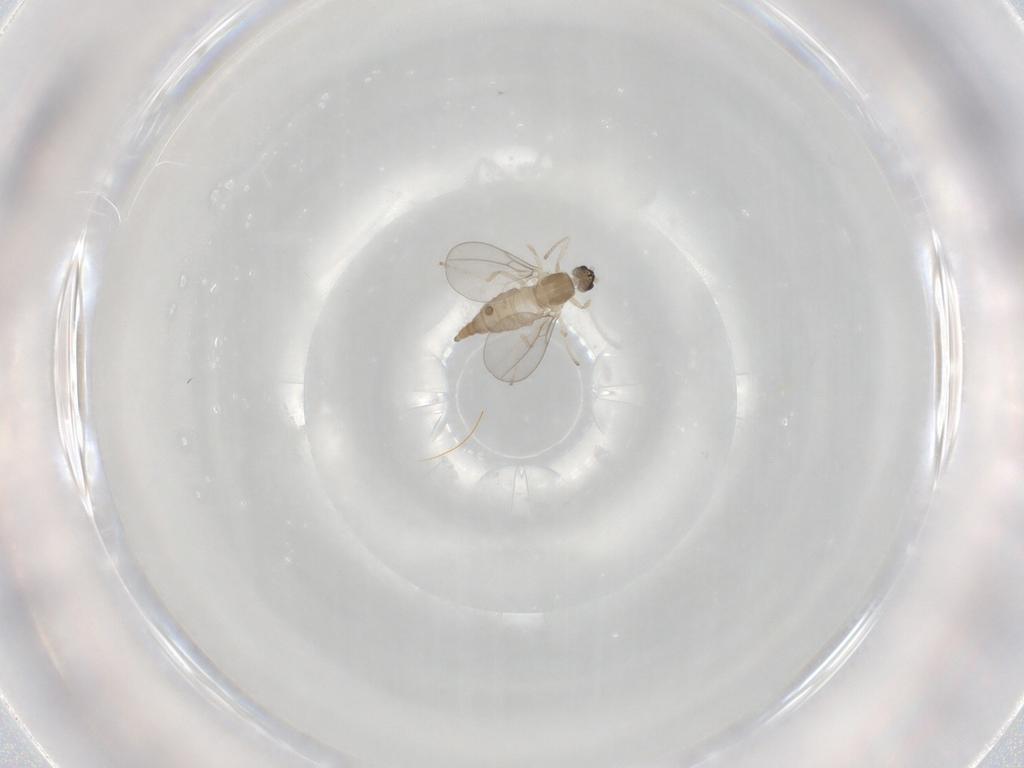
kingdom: Animalia
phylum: Arthropoda
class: Insecta
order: Diptera
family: Cecidomyiidae
